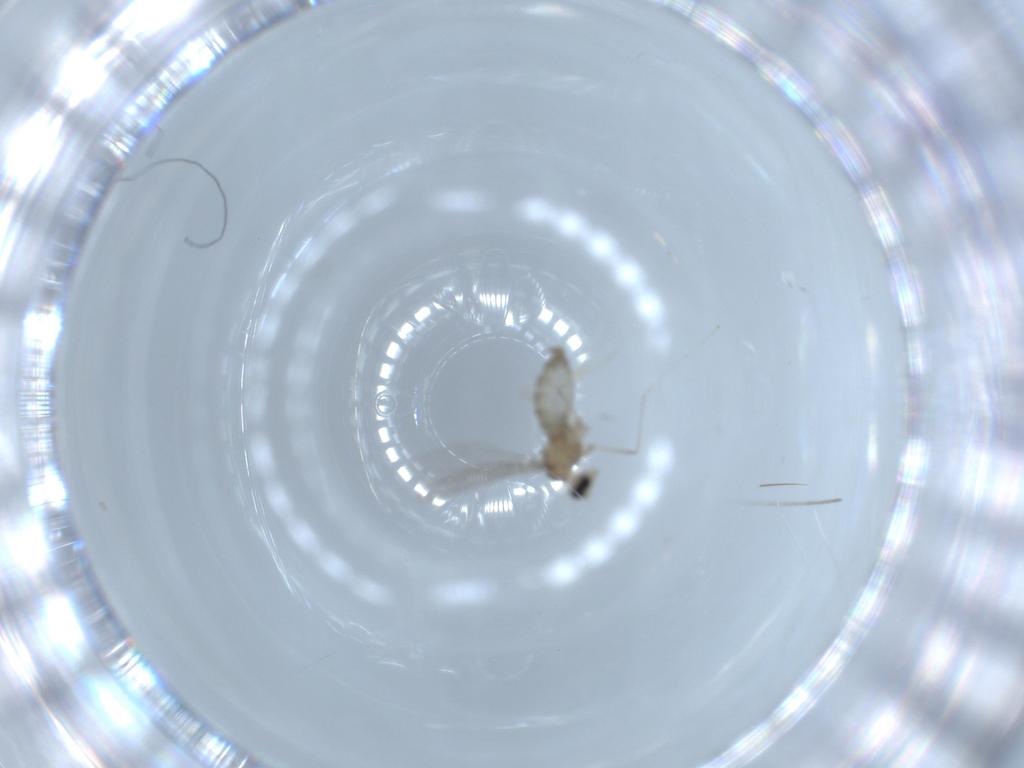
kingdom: Animalia
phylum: Arthropoda
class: Insecta
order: Diptera
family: Cecidomyiidae
